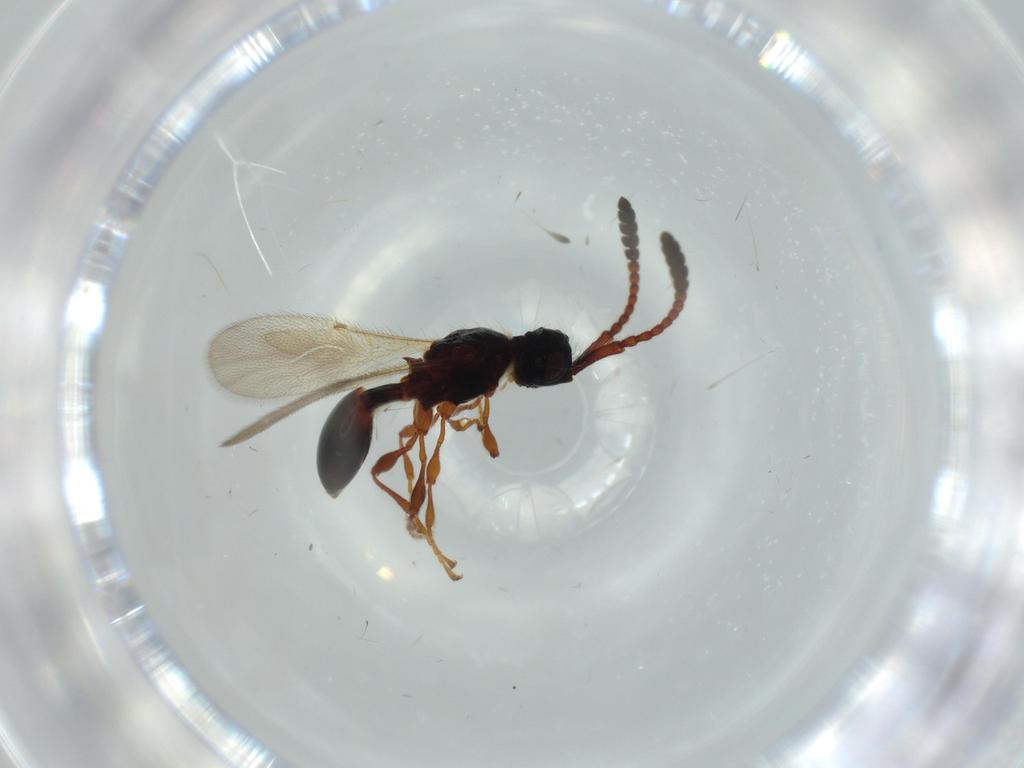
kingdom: Animalia
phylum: Arthropoda
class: Insecta
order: Hymenoptera
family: Diapriidae
